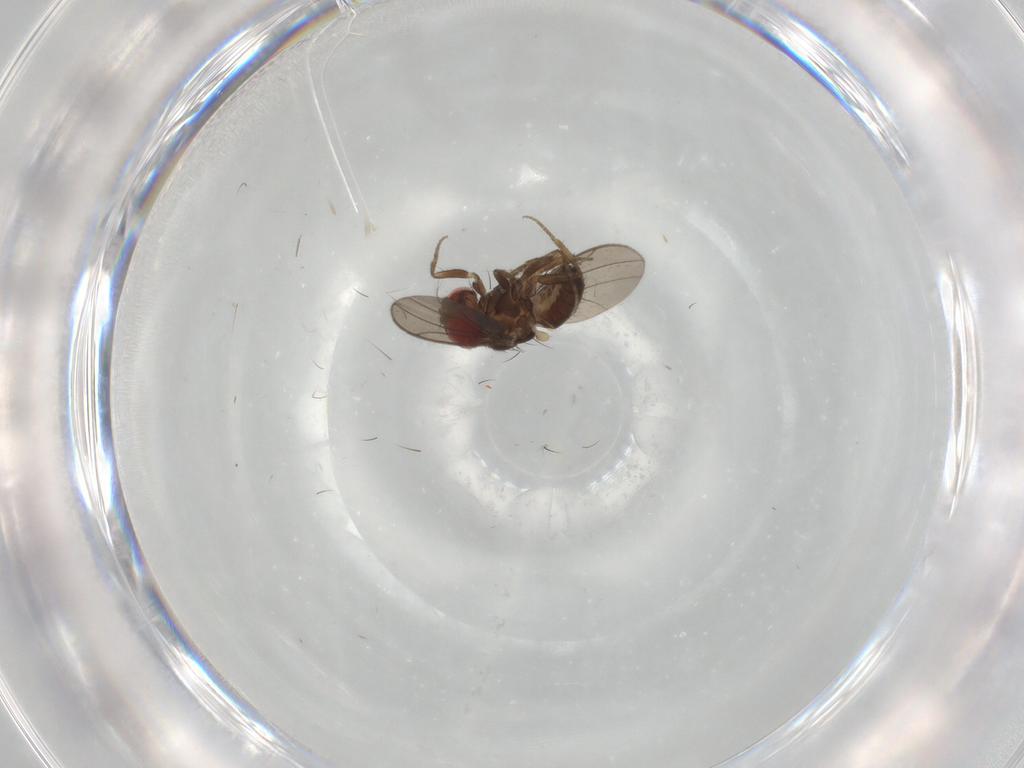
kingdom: Animalia
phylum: Arthropoda
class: Insecta
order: Diptera
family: Drosophilidae
